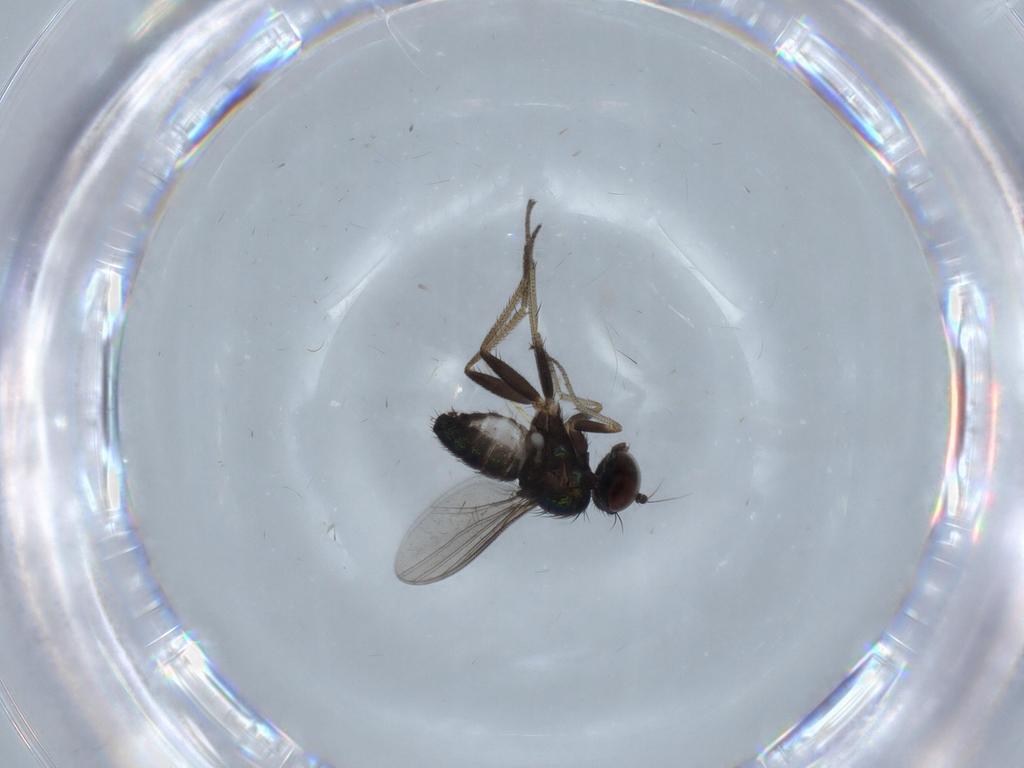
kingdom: Animalia
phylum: Arthropoda
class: Insecta
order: Diptera
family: Dolichopodidae
